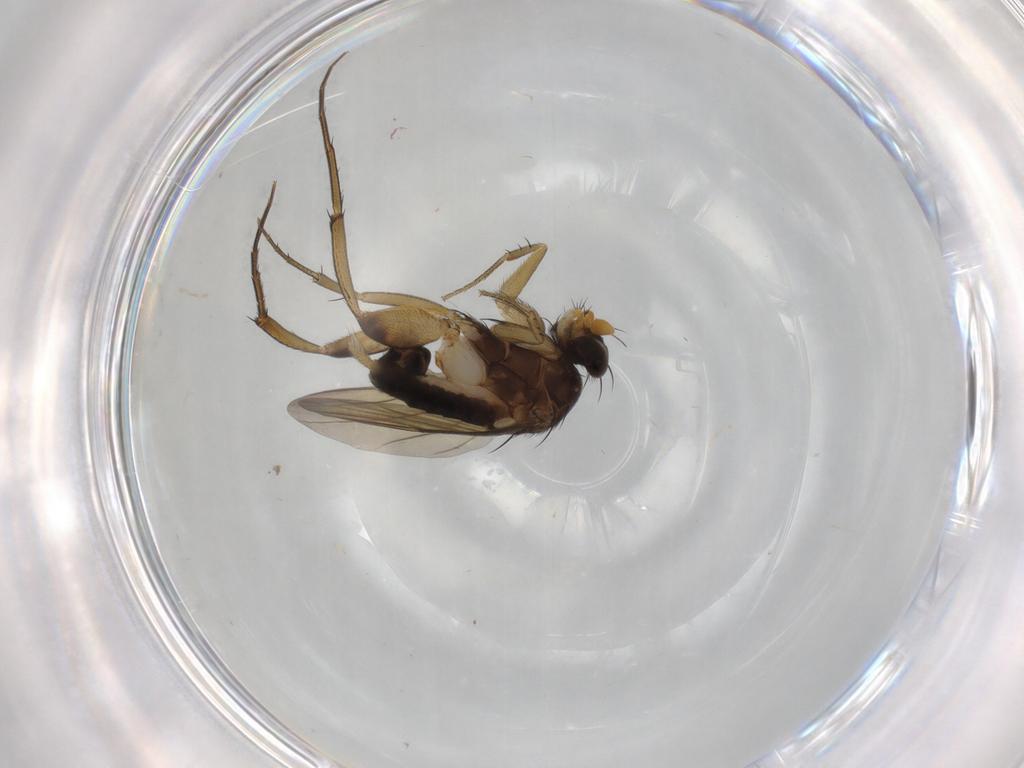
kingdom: Animalia
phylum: Arthropoda
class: Insecta
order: Diptera
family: Phoridae
